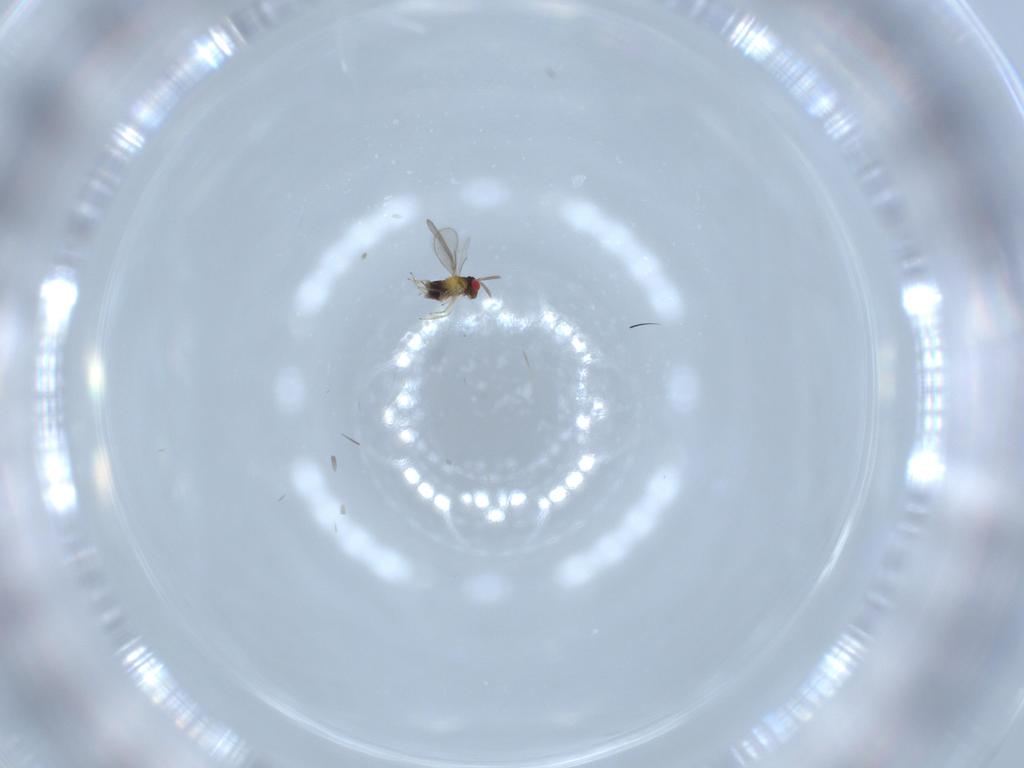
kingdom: Animalia
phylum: Arthropoda
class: Insecta
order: Hymenoptera
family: Aphelinidae
